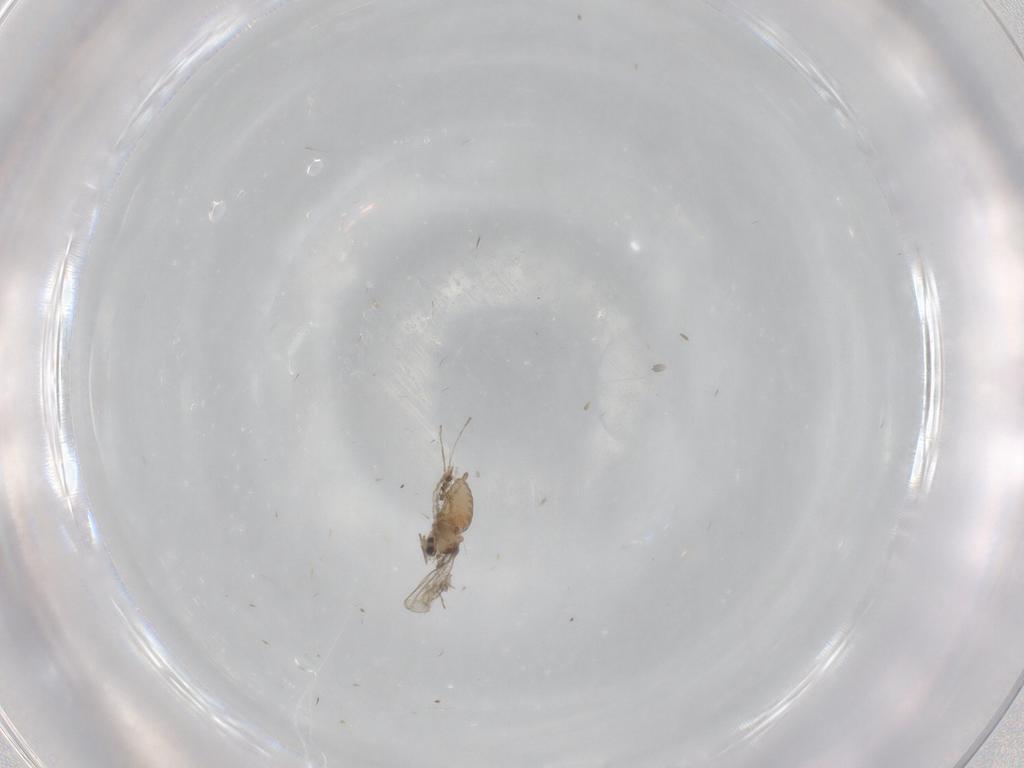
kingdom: Animalia
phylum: Arthropoda
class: Insecta
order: Diptera
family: Cecidomyiidae
